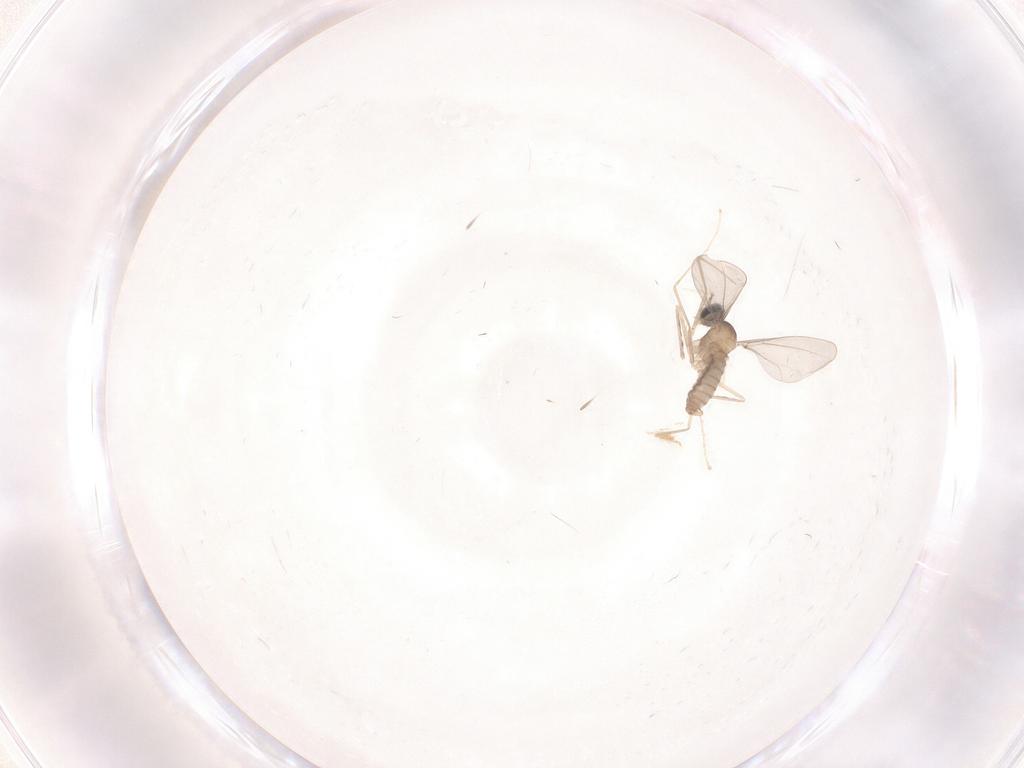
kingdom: Animalia
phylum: Arthropoda
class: Insecta
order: Diptera
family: Cecidomyiidae
